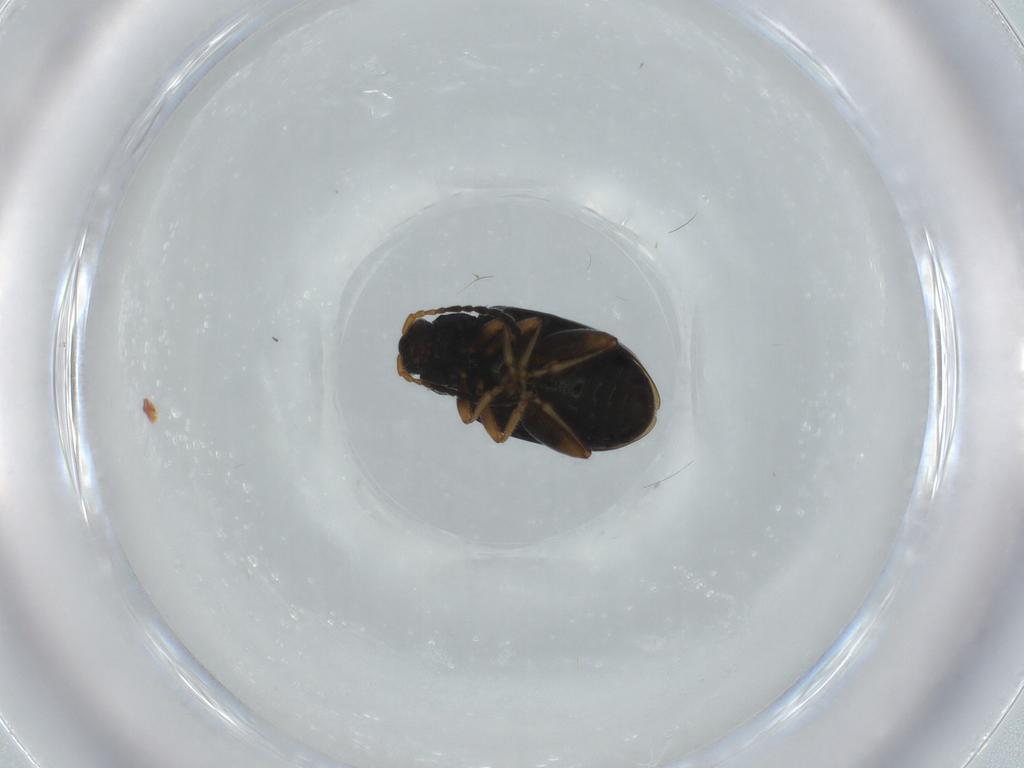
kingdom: Animalia
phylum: Arthropoda
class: Insecta
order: Coleoptera
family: Chrysomelidae
